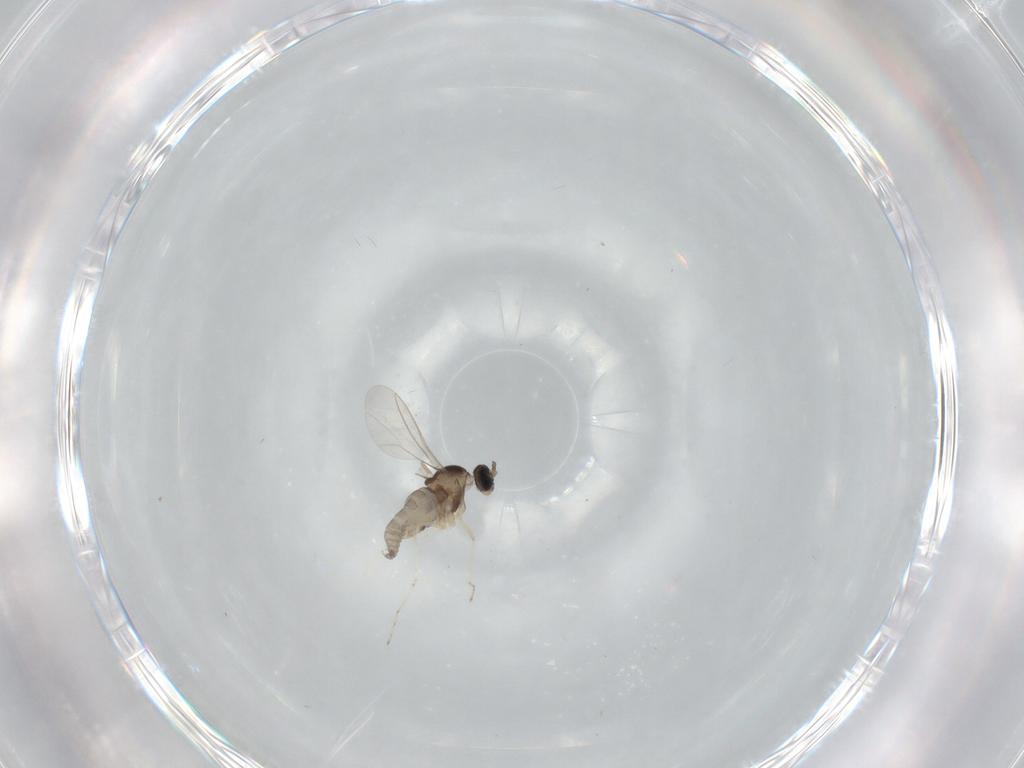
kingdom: Animalia
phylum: Arthropoda
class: Insecta
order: Diptera
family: Cecidomyiidae
